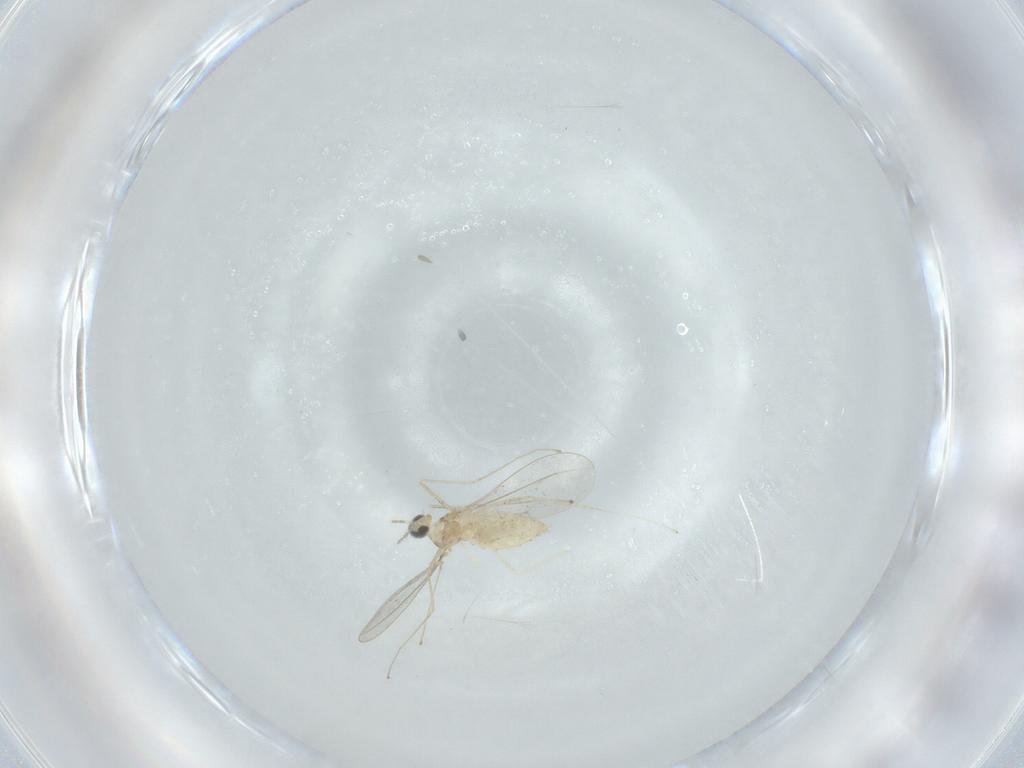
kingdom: Animalia
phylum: Arthropoda
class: Insecta
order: Diptera
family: Cecidomyiidae
